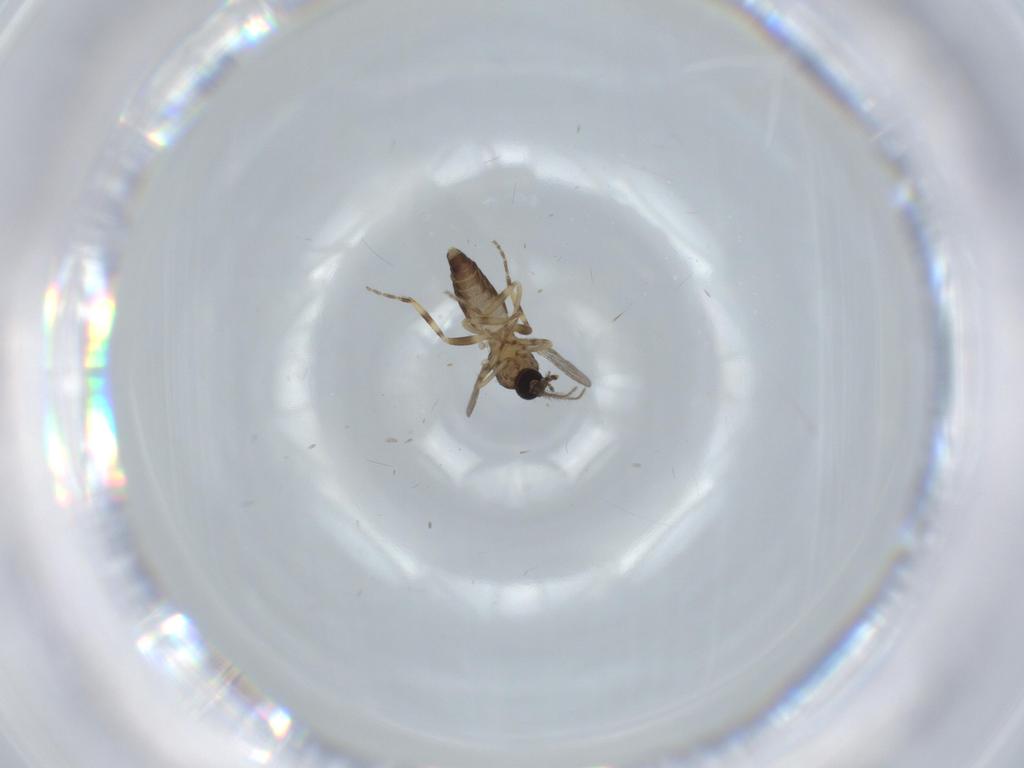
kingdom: Animalia
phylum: Arthropoda
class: Insecta
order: Diptera
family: Ceratopogonidae
